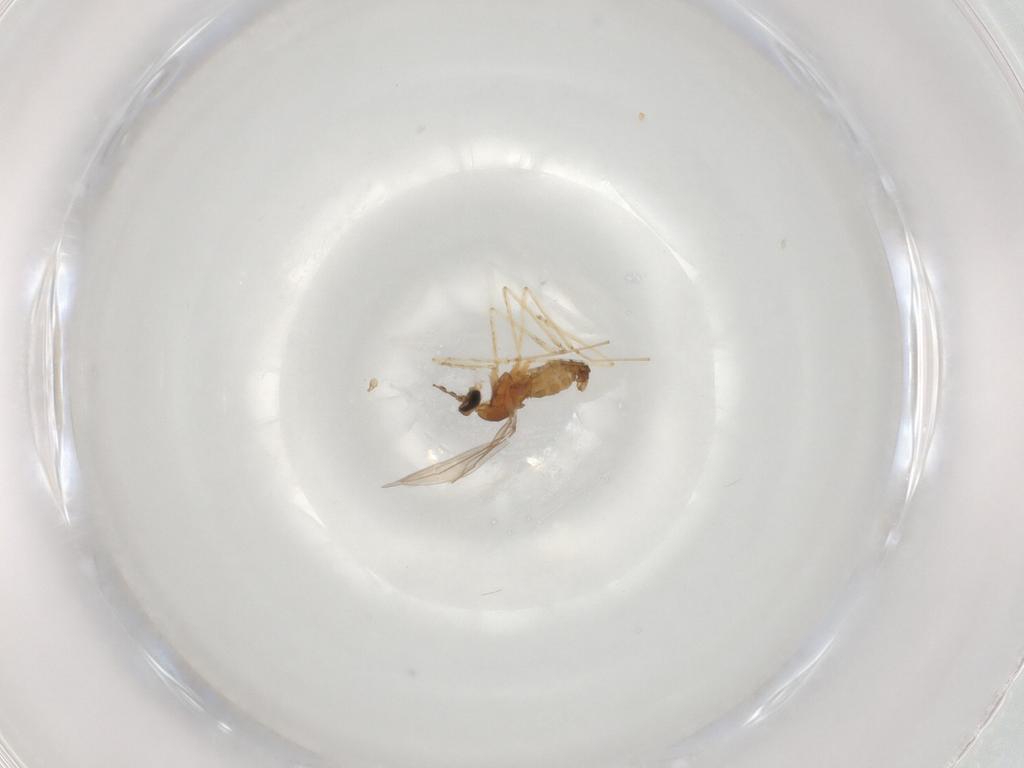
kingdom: Animalia
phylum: Arthropoda
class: Insecta
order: Diptera
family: Cecidomyiidae
